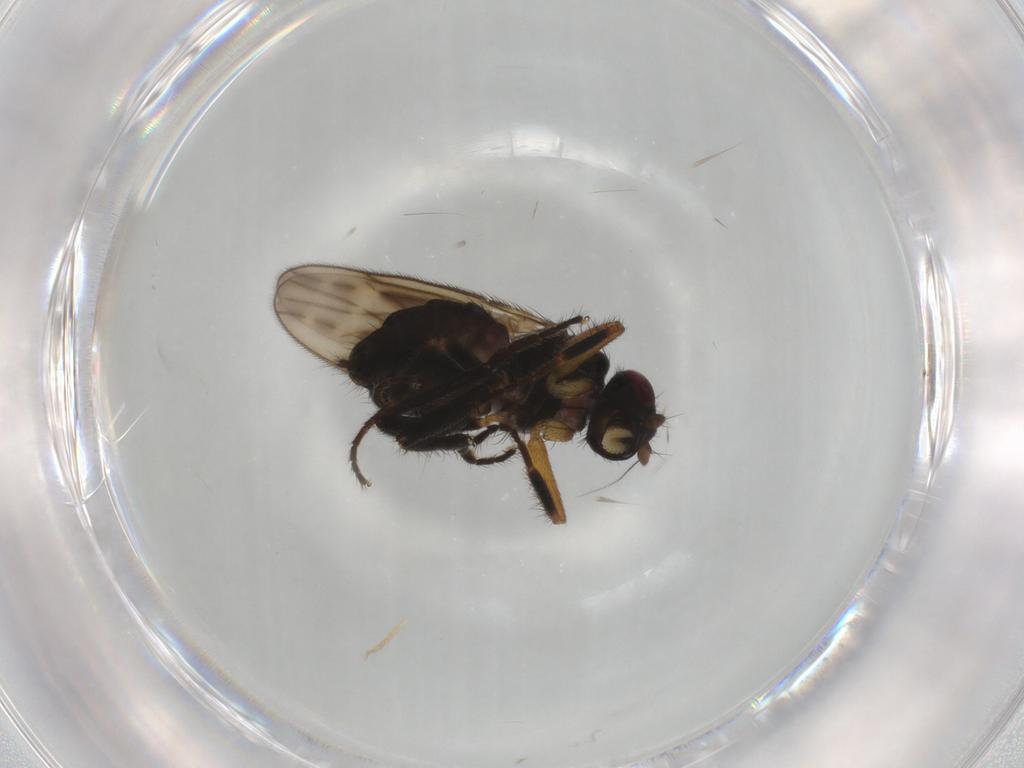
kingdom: Animalia
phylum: Arthropoda
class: Insecta
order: Diptera
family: Sphaeroceridae
